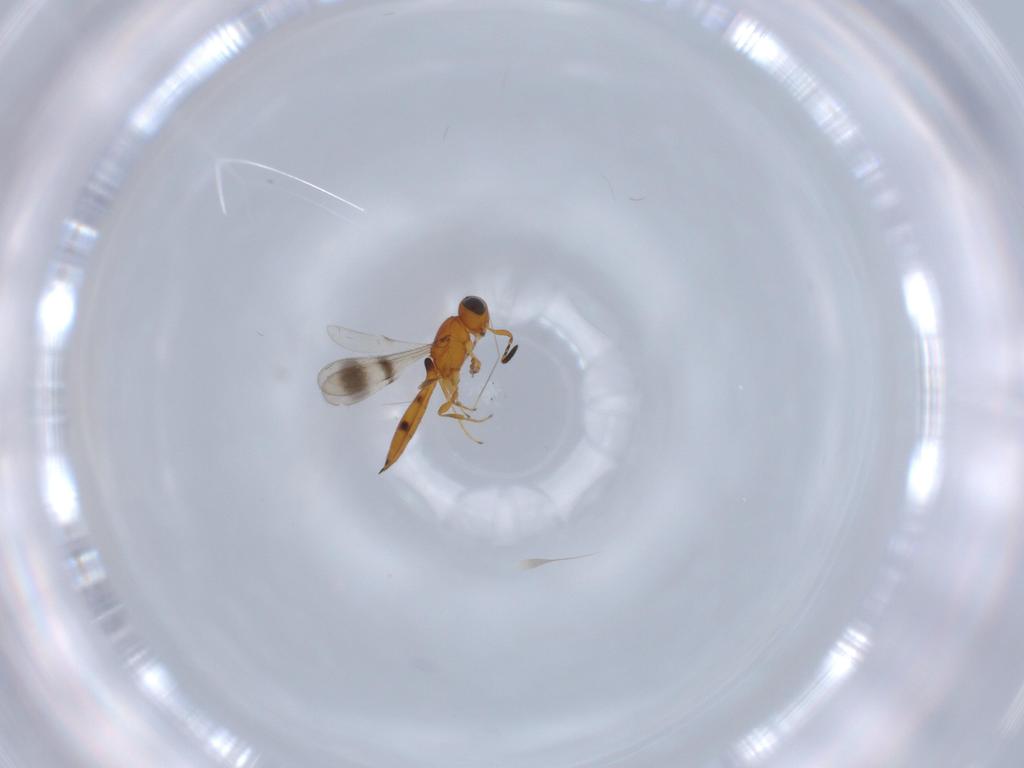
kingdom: Animalia
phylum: Arthropoda
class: Insecta
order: Hymenoptera
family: Scelionidae
